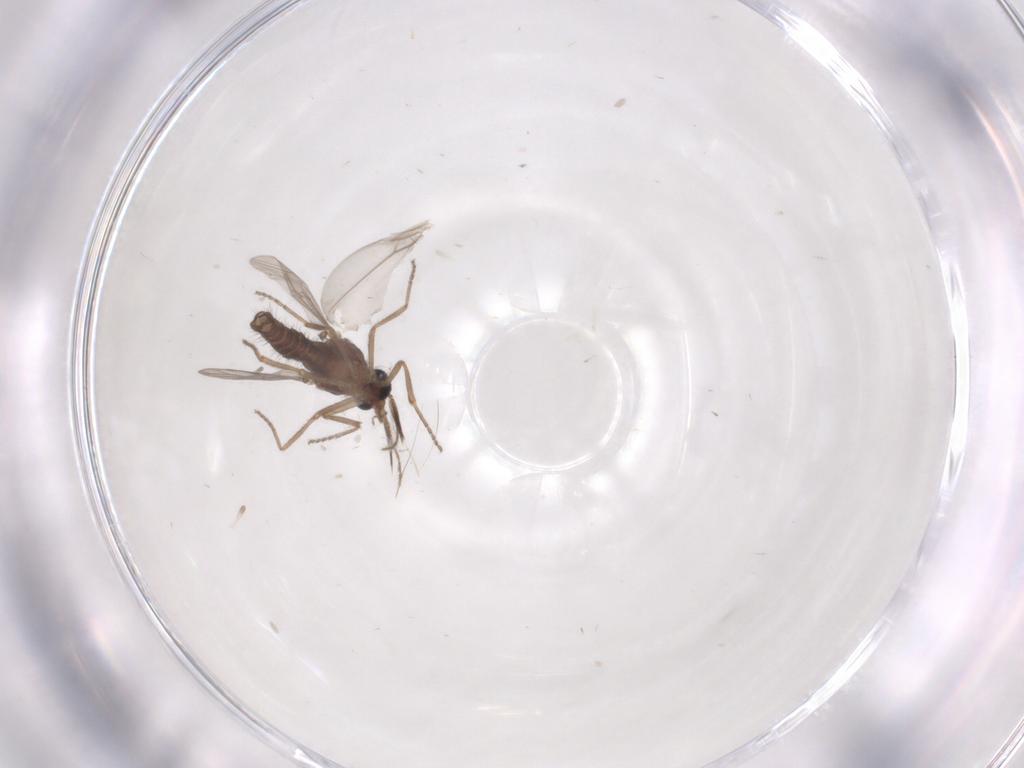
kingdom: Animalia
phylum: Arthropoda
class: Insecta
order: Diptera
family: Ceratopogonidae
